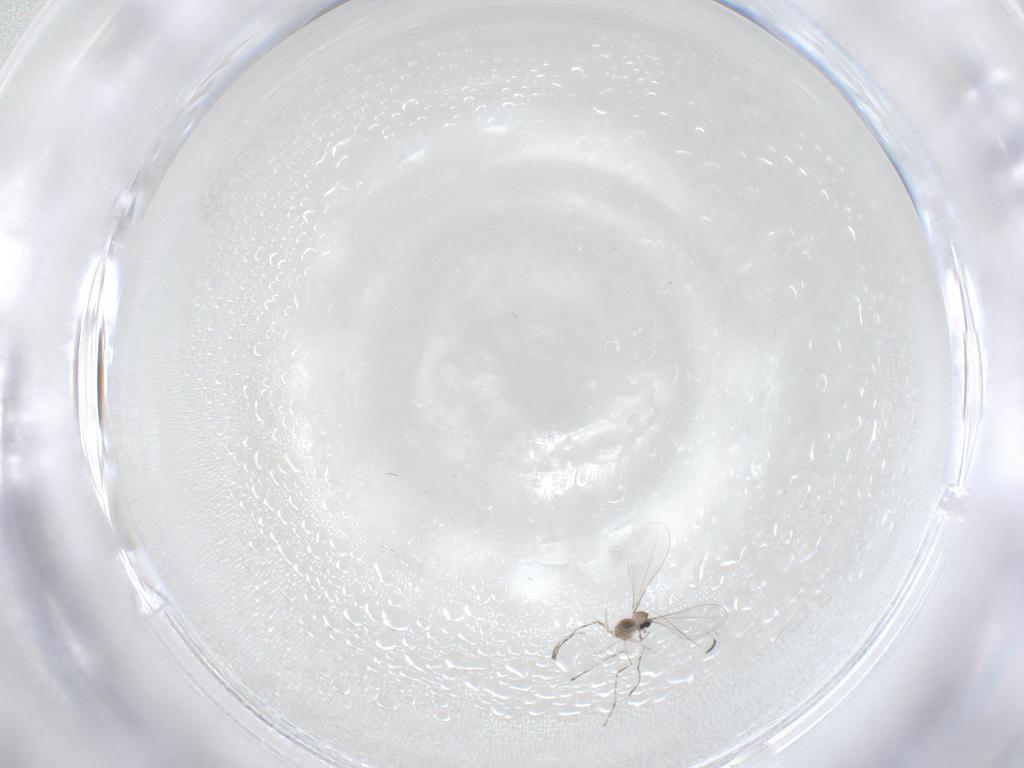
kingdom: Animalia
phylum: Arthropoda
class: Insecta
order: Diptera
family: Cecidomyiidae
